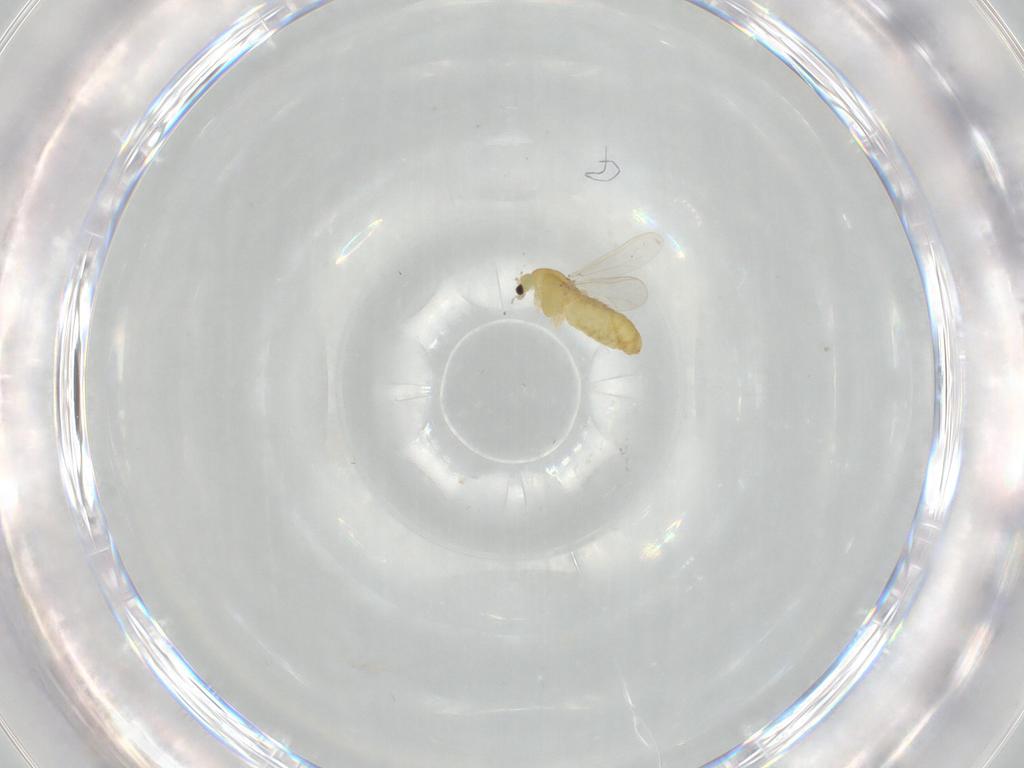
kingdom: Animalia
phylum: Arthropoda
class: Insecta
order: Diptera
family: Chironomidae
